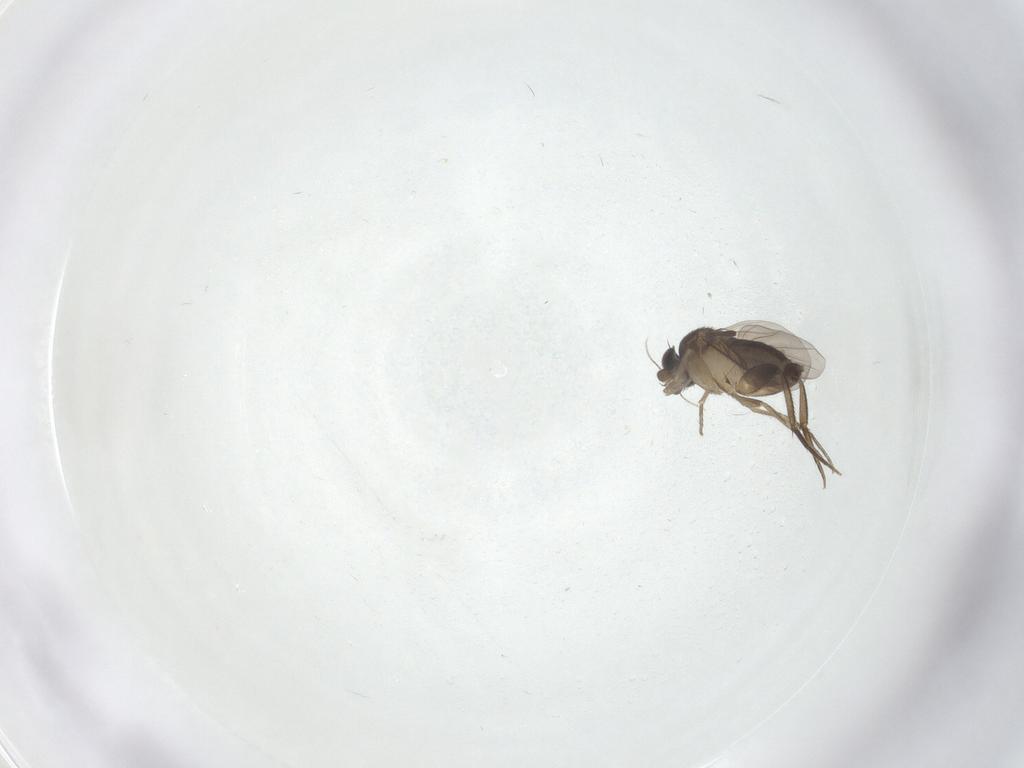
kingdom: Animalia
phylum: Arthropoda
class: Insecta
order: Diptera
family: Phoridae
